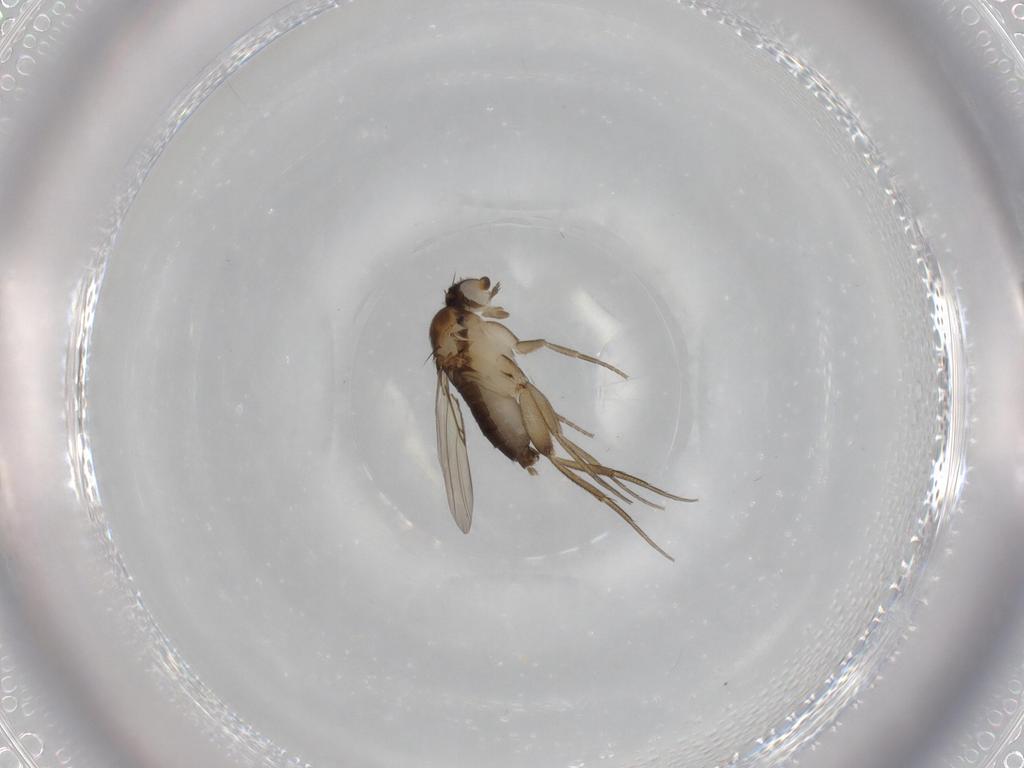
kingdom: Animalia
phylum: Arthropoda
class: Insecta
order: Diptera
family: Phoridae
